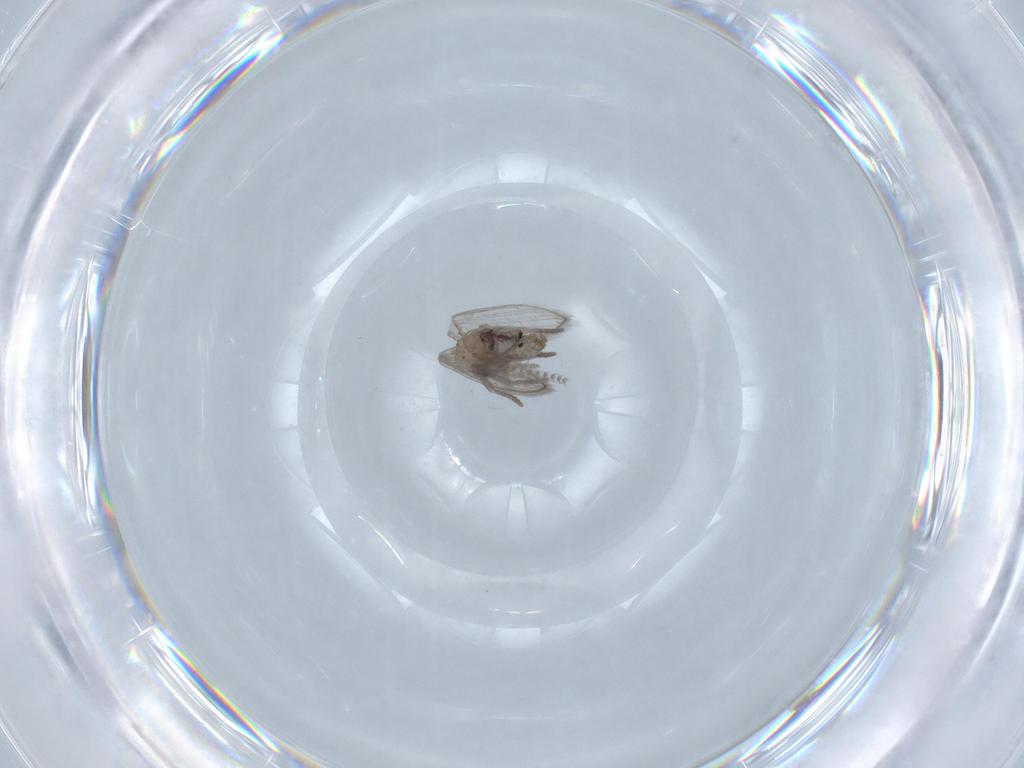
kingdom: Animalia
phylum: Arthropoda
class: Insecta
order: Diptera
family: Psychodidae
